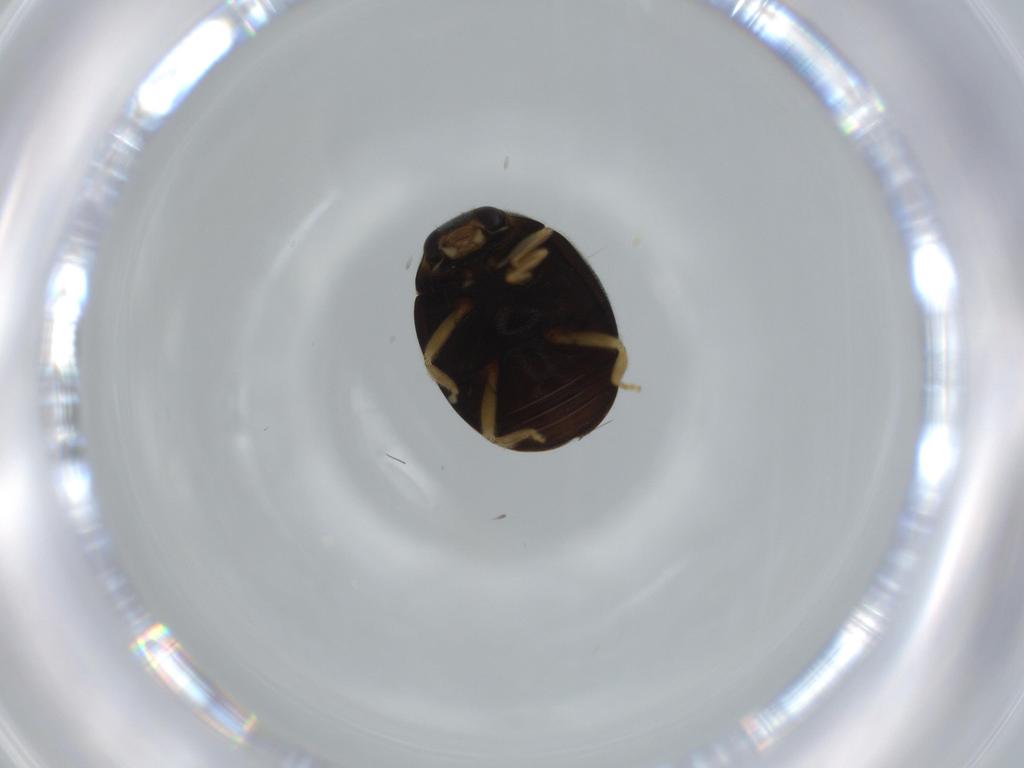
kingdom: Animalia
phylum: Arthropoda
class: Insecta
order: Coleoptera
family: Coccinellidae
